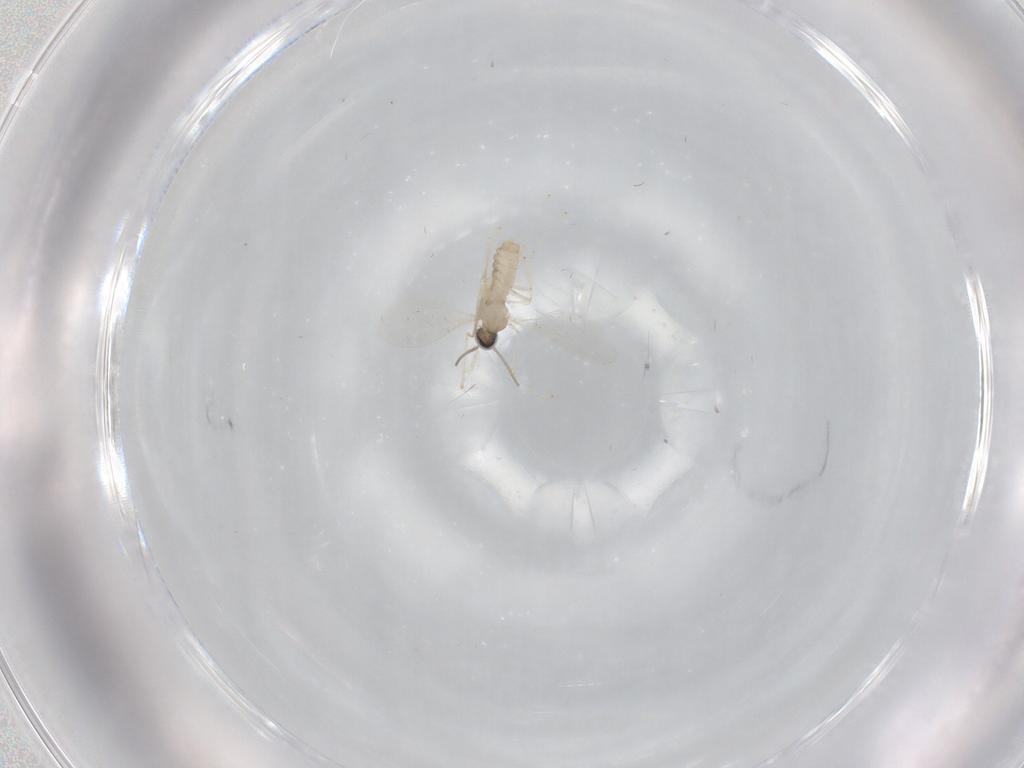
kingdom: Animalia
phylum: Arthropoda
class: Insecta
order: Diptera
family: Cecidomyiidae
